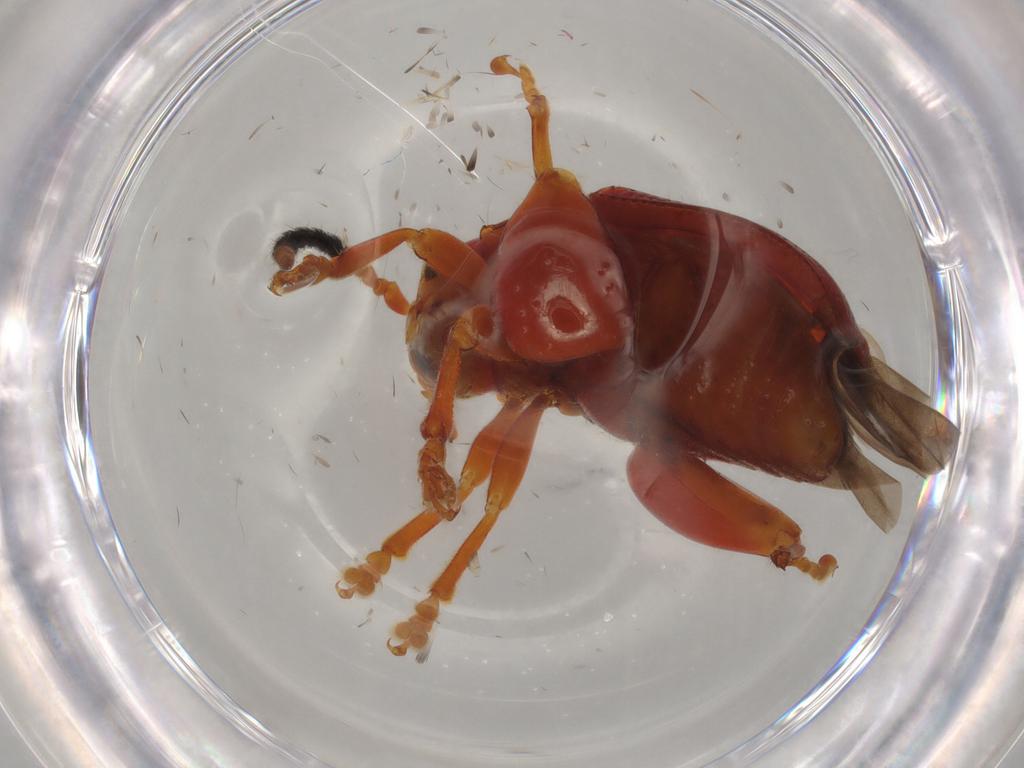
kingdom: Animalia
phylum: Arthropoda
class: Insecta
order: Coleoptera
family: Chrysomelidae
